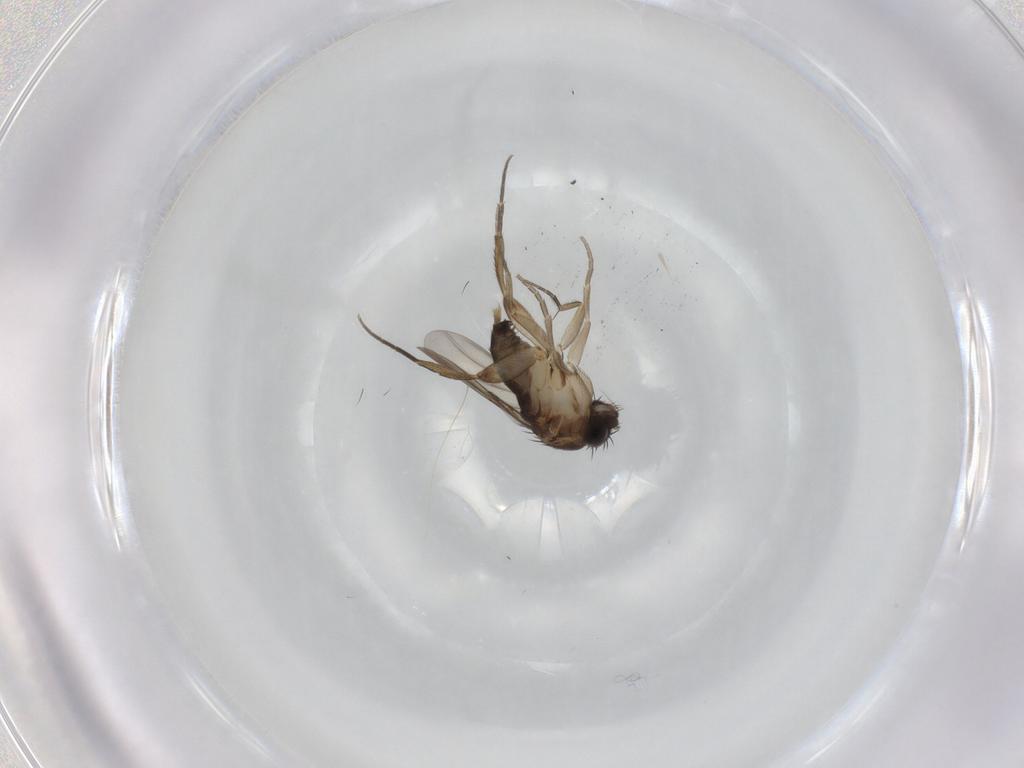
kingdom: Animalia
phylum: Arthropoda
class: Insecta
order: Diptera
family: Phoridae
